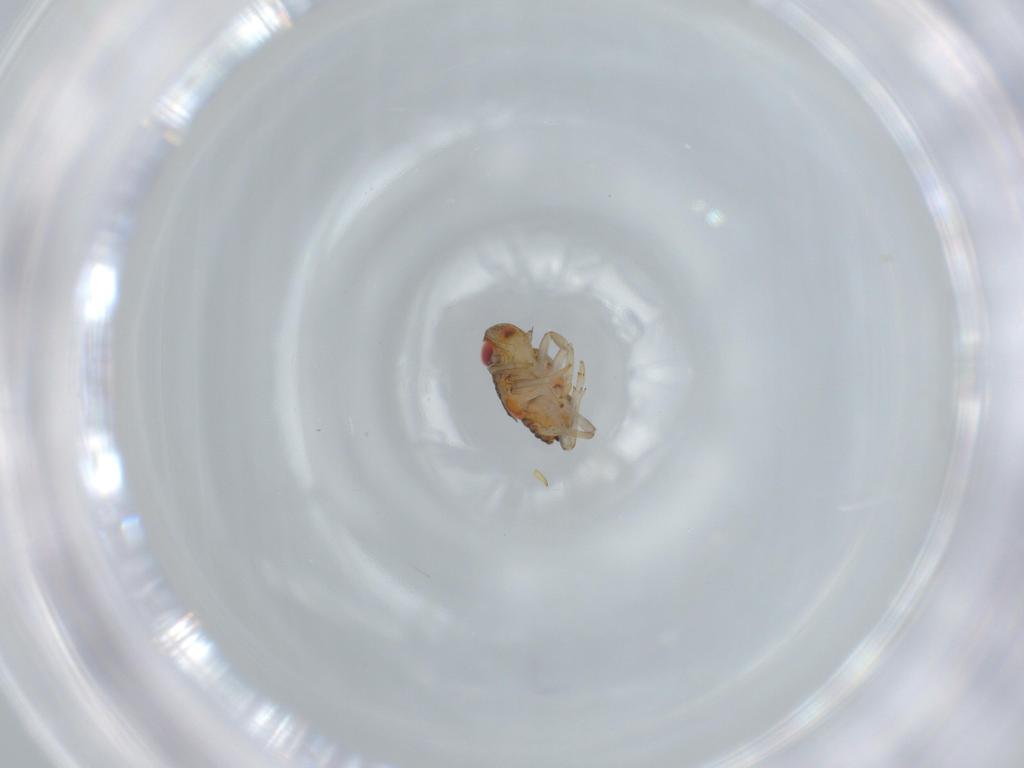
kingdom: Animalia
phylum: Arthropoda
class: Insecta
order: Hemiptera
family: Issidae
